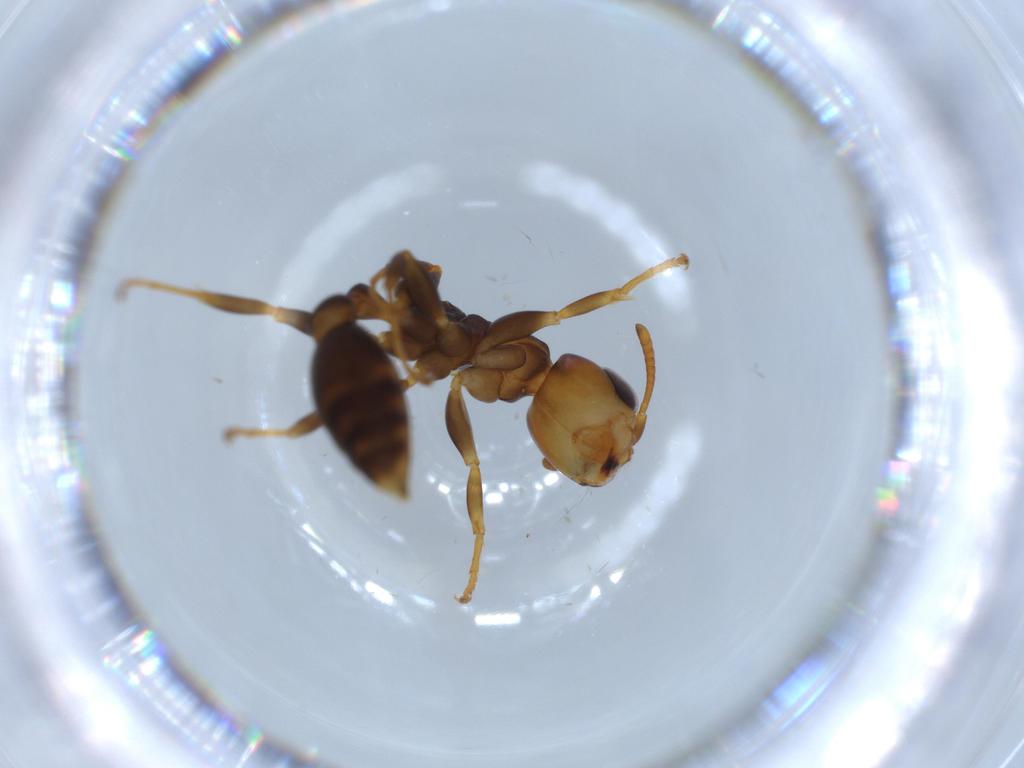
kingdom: Animalia
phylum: Arthropoda
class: Insecta
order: Hymenoptera
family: Formicidae
